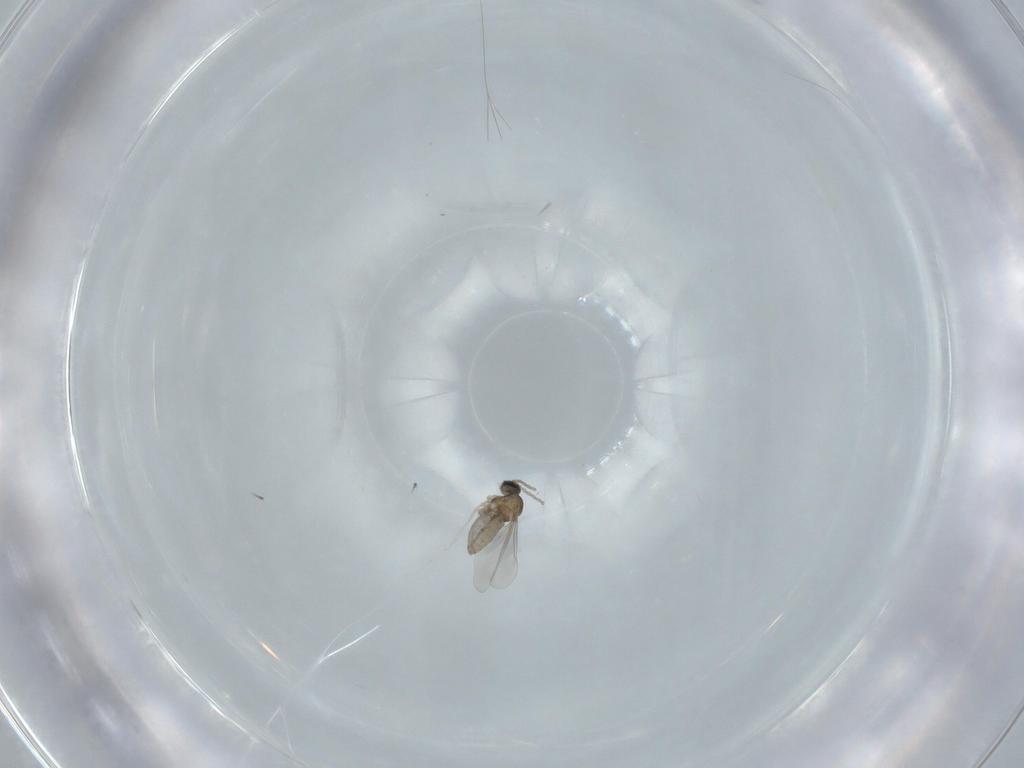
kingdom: Animalia
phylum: Arthropoda
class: Insecta
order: Diptera
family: Cecidomyiidae
